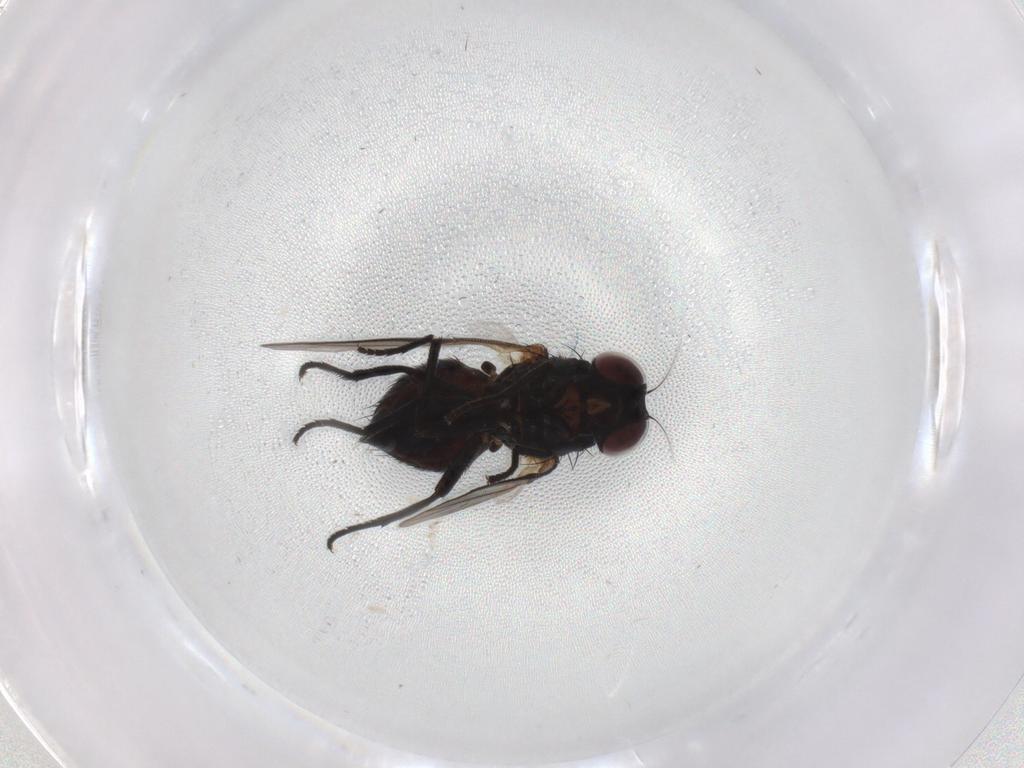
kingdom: Animalia
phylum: Arthropoda
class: Insecta
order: Diptera
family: Agromyzidae
